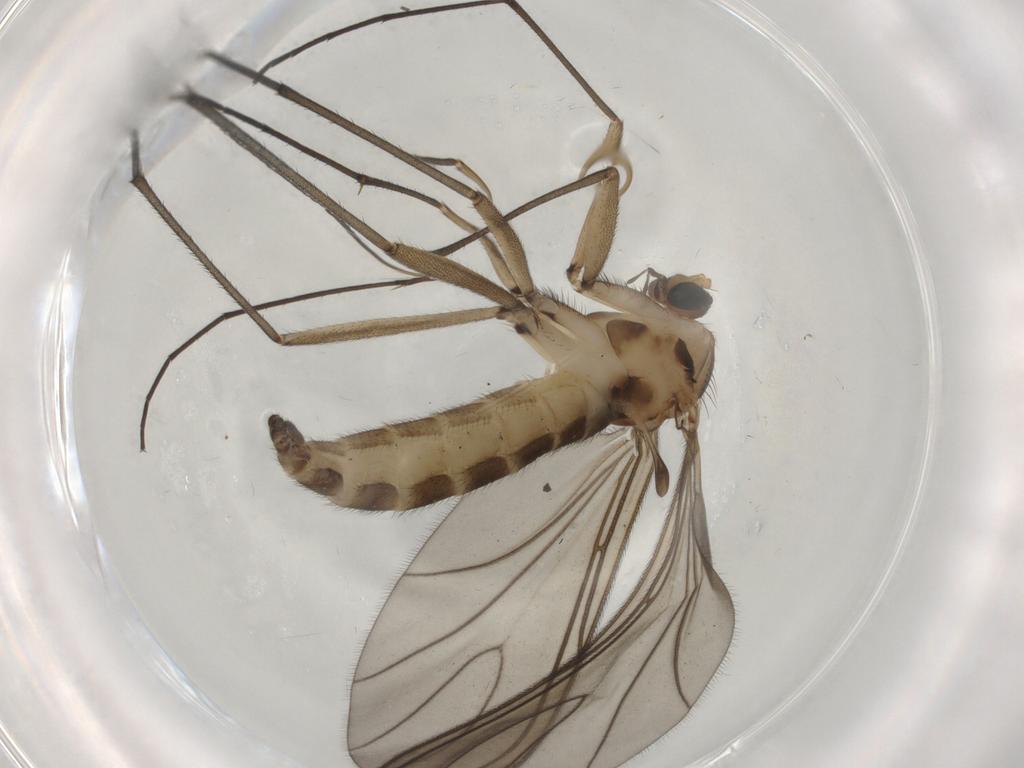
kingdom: Animalia
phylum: Arthropoda
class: Insecta
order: Diptera
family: Sciaridae
